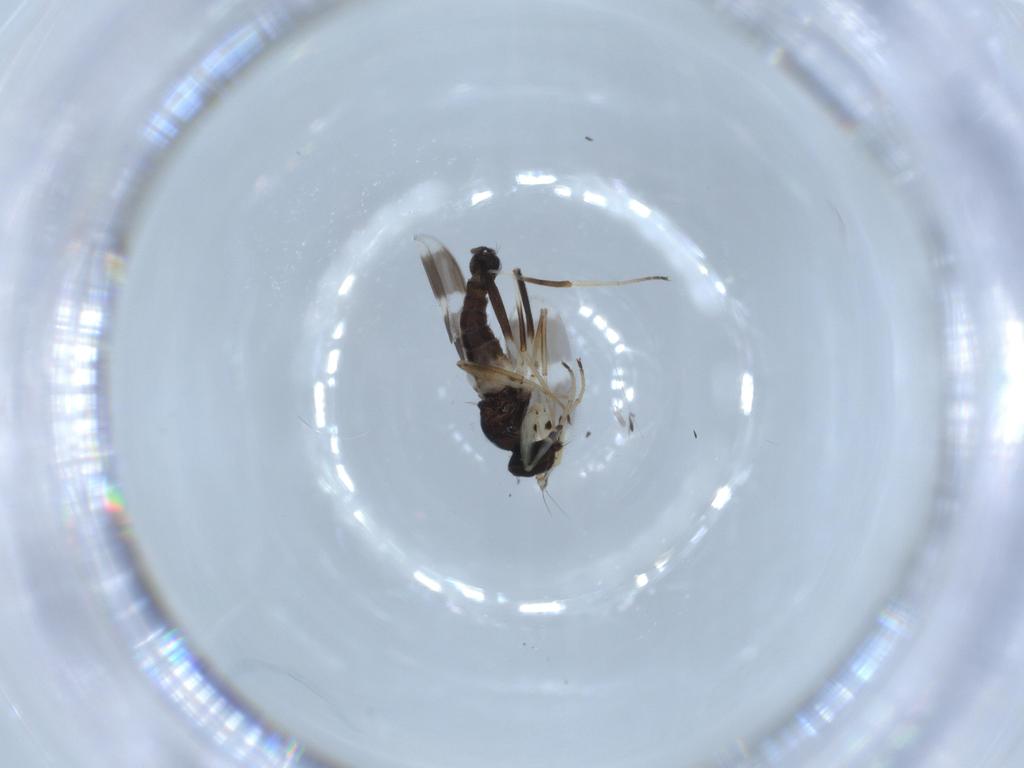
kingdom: Animalia
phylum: Arthropoda
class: Insecta
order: Diptera
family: Hybotidae
